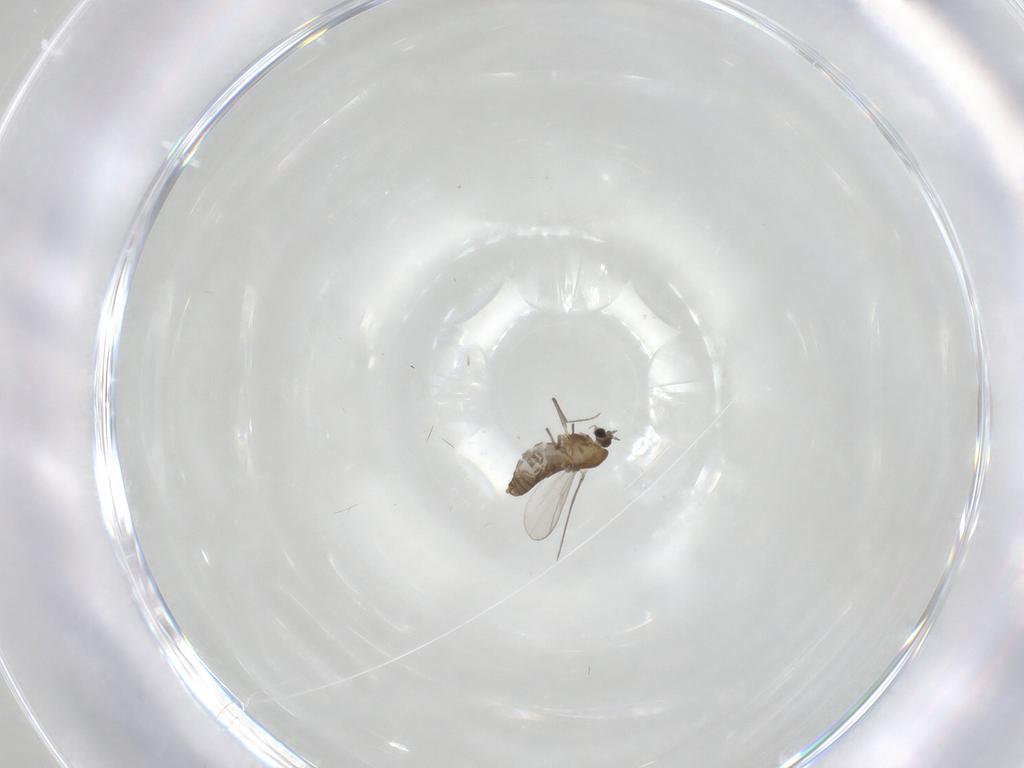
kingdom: Animalia
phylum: Arthropoda
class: Insecta
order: Diptera
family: Chironomidae
